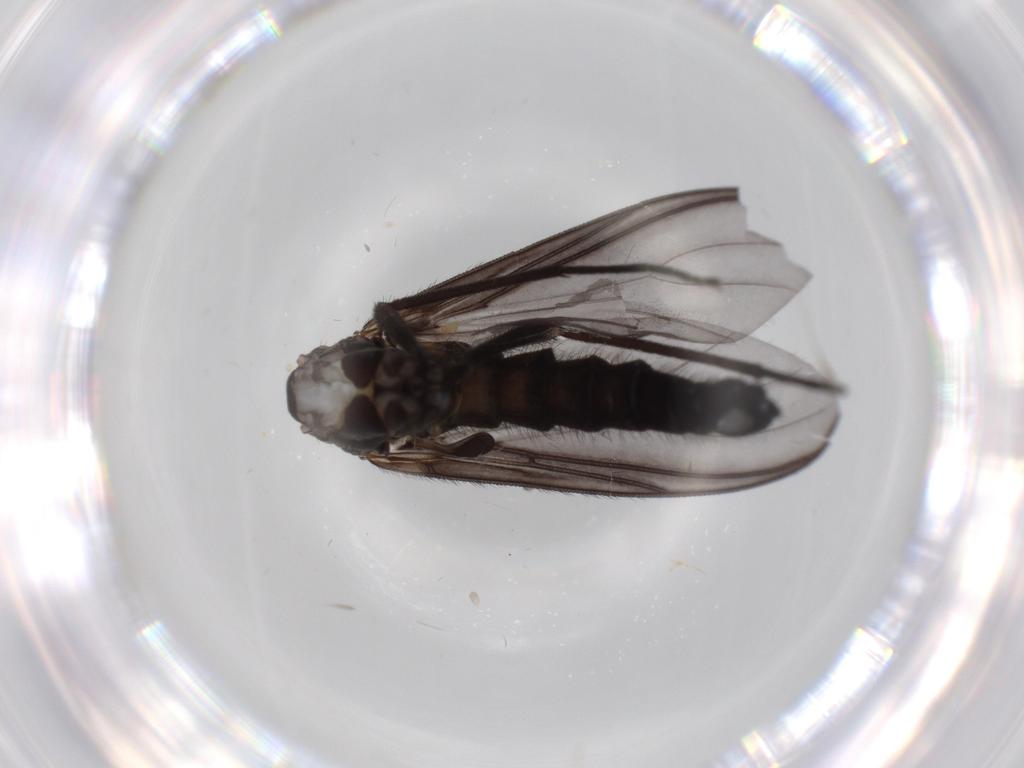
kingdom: Animalia
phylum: Arthropoda
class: Insecta
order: Diptera
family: Cecidomyiidae
